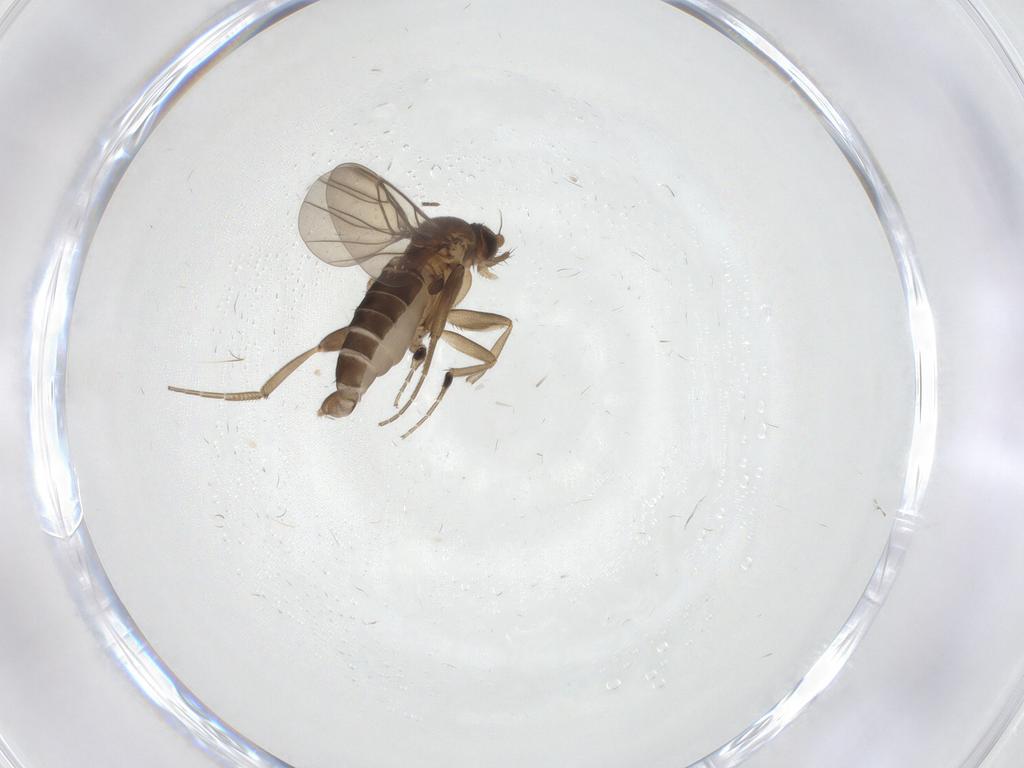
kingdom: Animalia
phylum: Arthropoda
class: Insecta
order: Diptera
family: Phoridae
